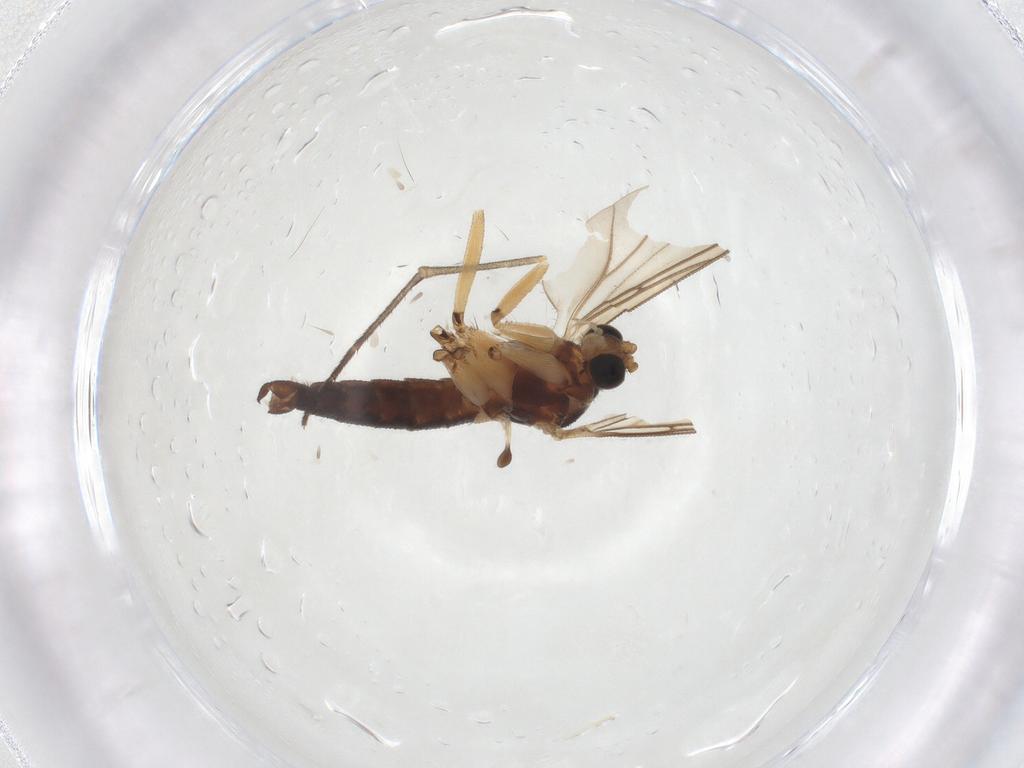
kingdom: Animalia
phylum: Arthropoda
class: Insecta
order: Diptera
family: Sciaridae
